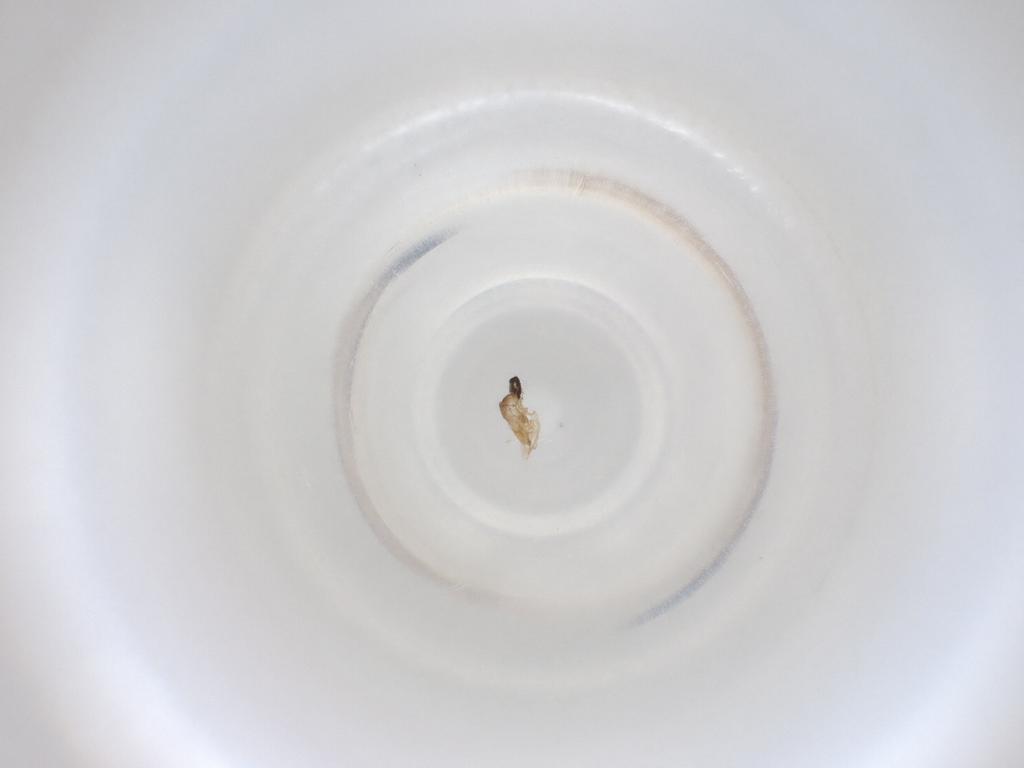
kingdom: Animalia
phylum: Arthropoda
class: Insecta
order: Diptera
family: Cecidomyiidae
